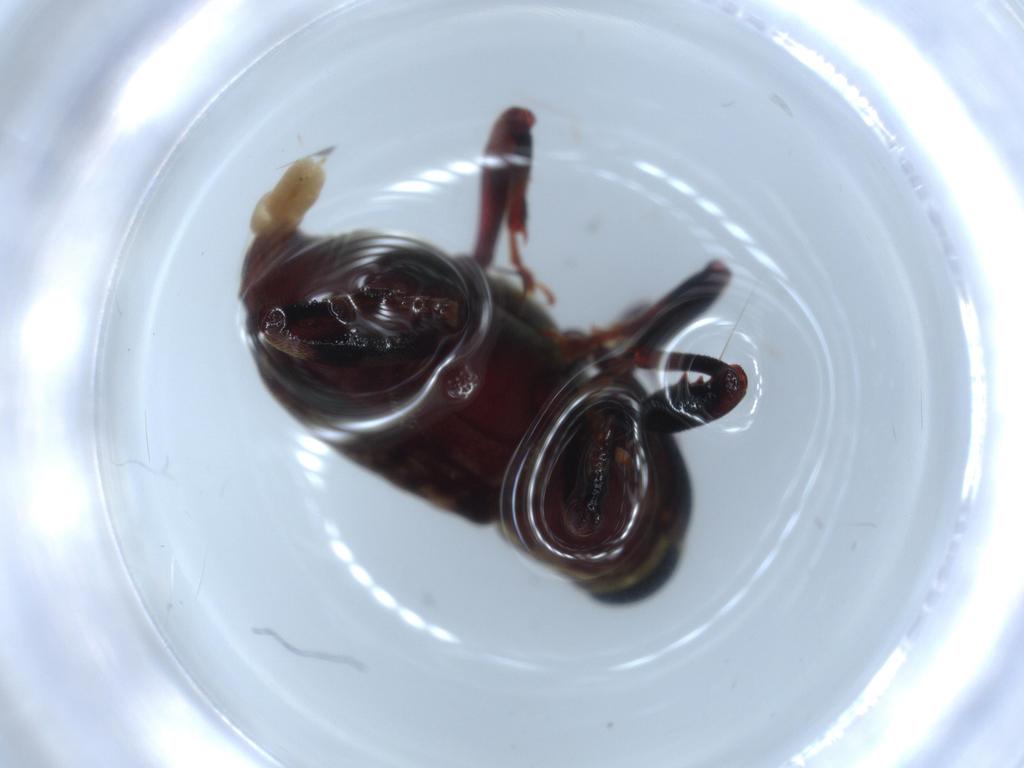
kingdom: Animalia
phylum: Arthropoda
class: Insecta
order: Coleoptera
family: Curculionidae
